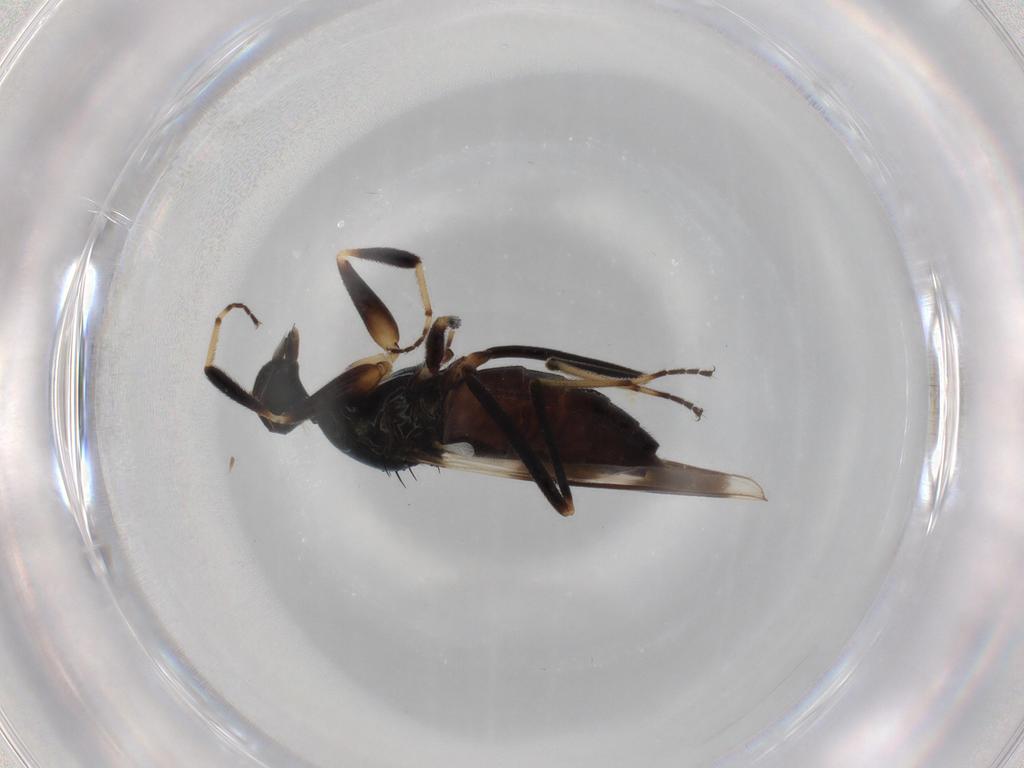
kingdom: Animalia
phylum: Arthropoda
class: Insecta
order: Diptera
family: Hybotidae
